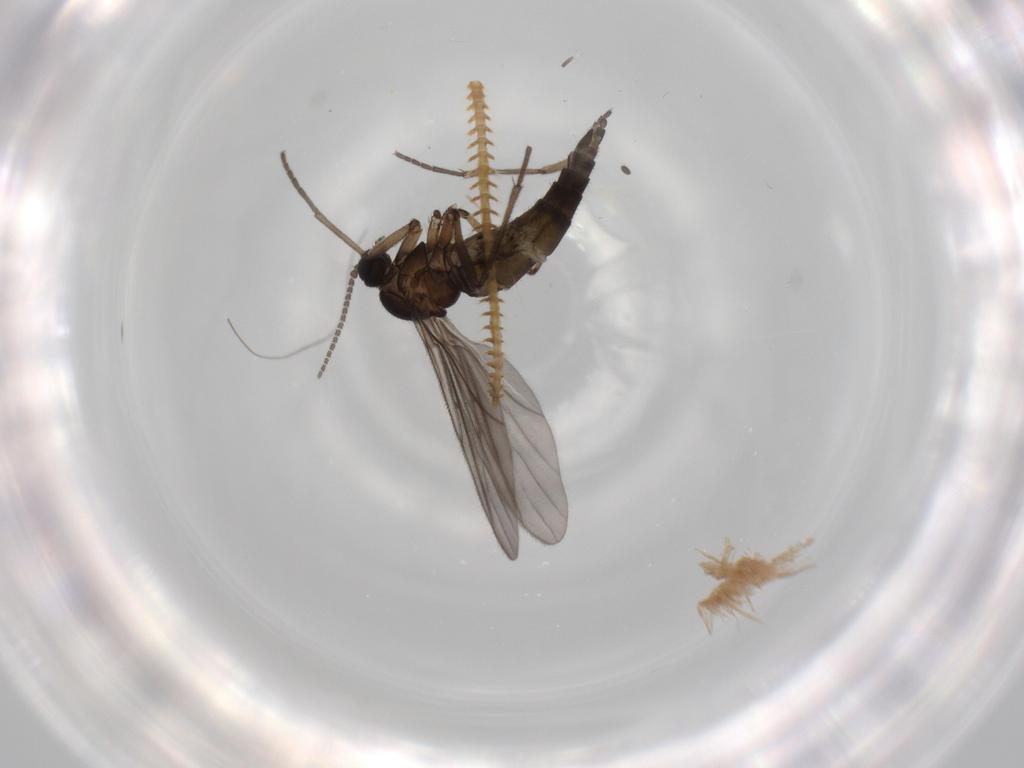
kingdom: Animalia
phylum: Arthropoda
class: Insecta
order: Diptera
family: Sciaridae
